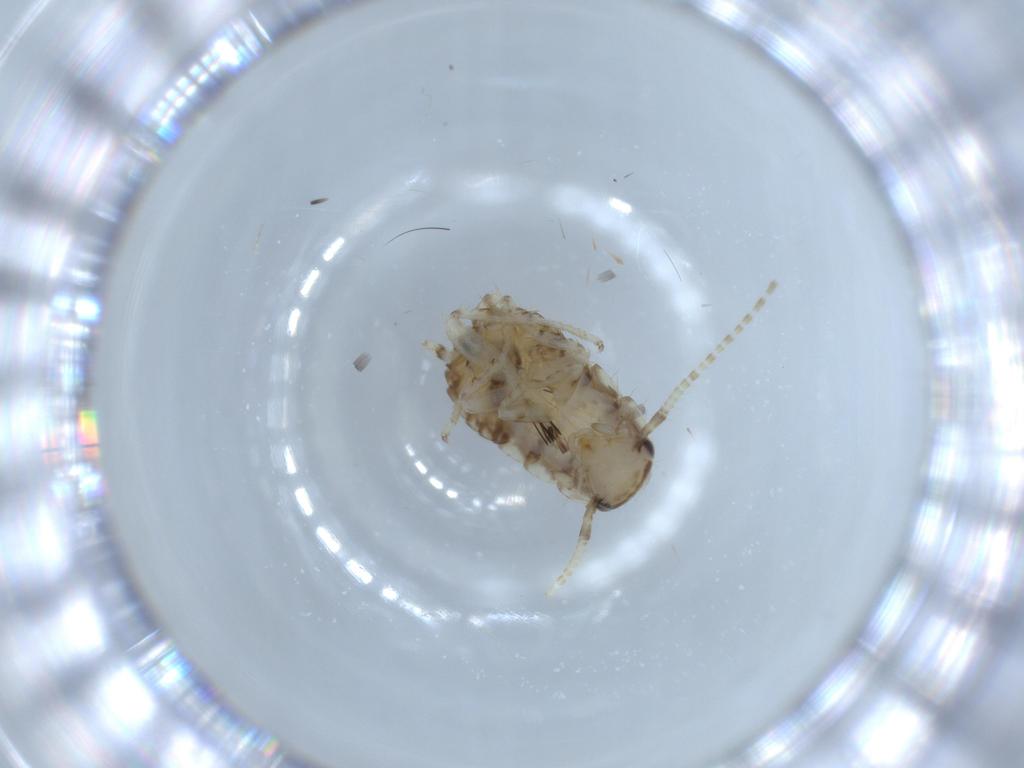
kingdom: Animalia
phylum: Arthropoda
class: Insecta
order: Blattodea
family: Ectobiidae
